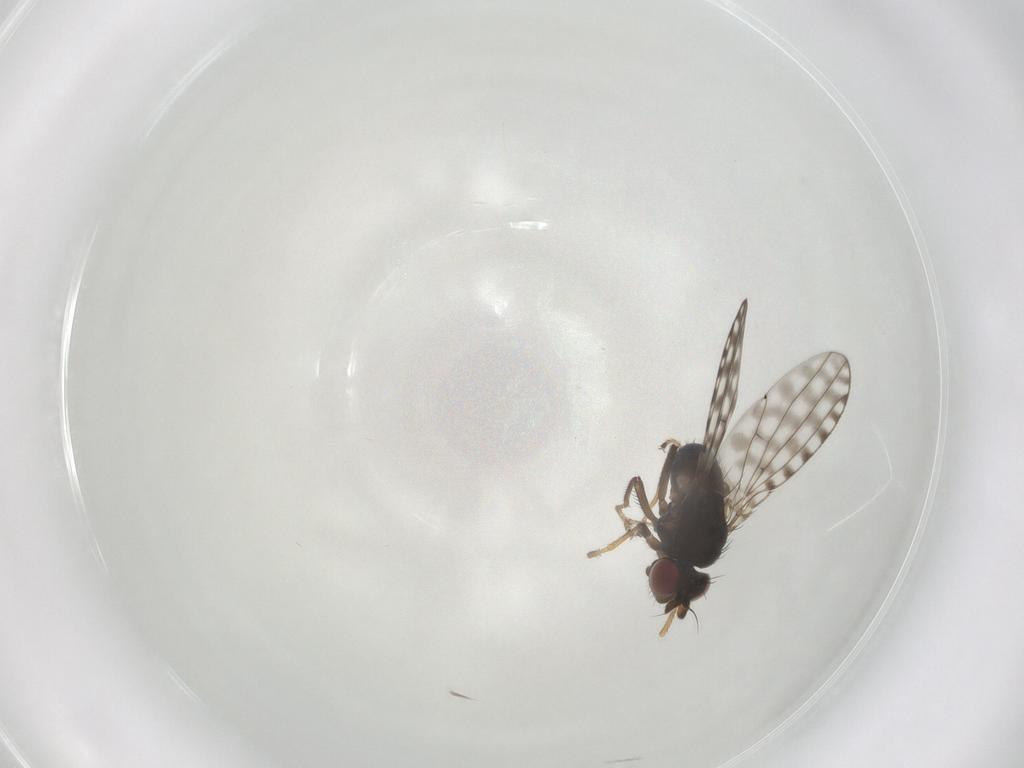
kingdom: Animalia
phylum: Arthropoda
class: Insecta
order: Diptera
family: Ephydridae
